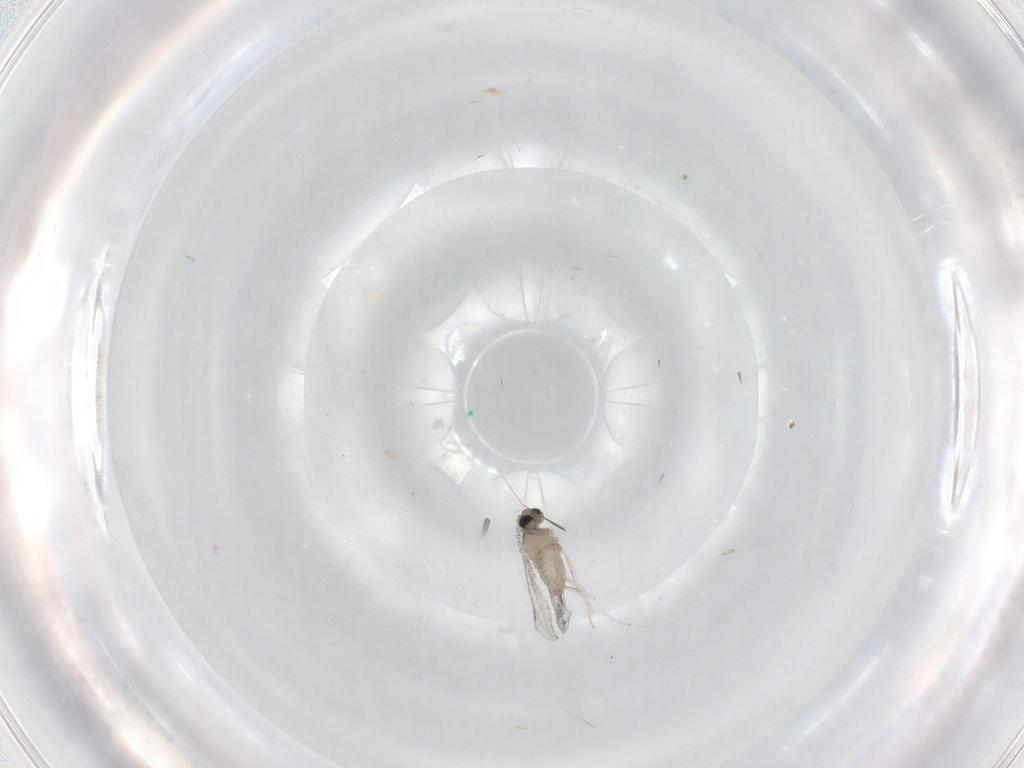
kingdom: Animalia
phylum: Arthropoda
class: Insecta
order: Diptera
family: Cecidomyiidae
